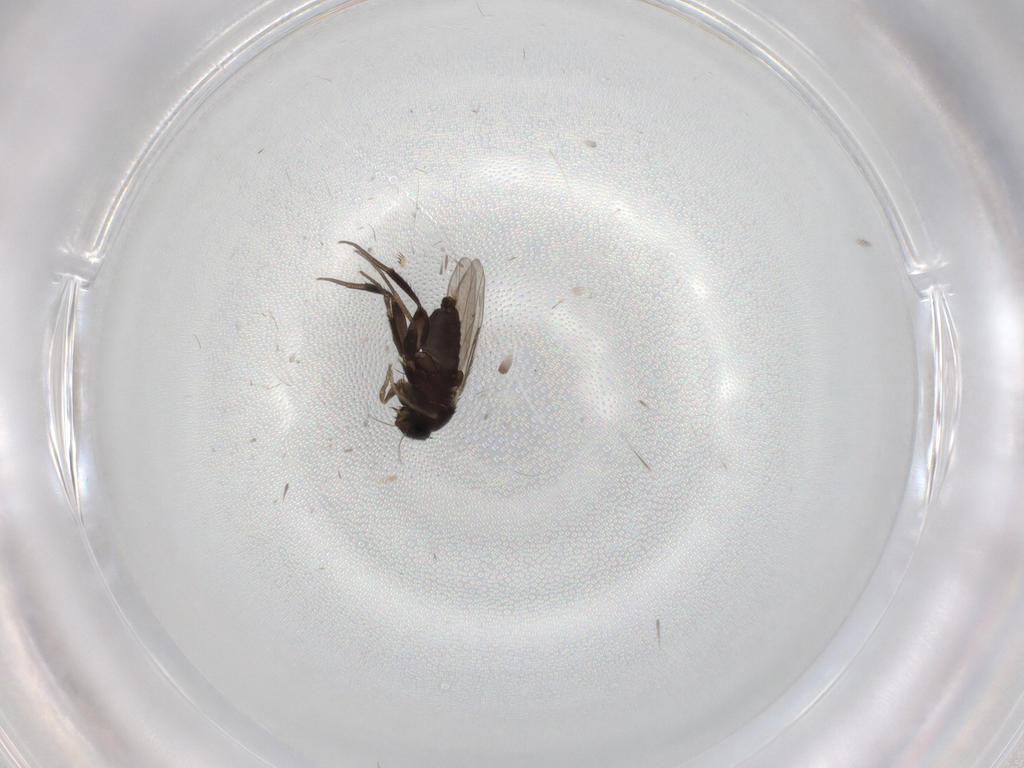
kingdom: Animalia
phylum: Arthropoda
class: Insecta
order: Diptera
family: Phoridae
